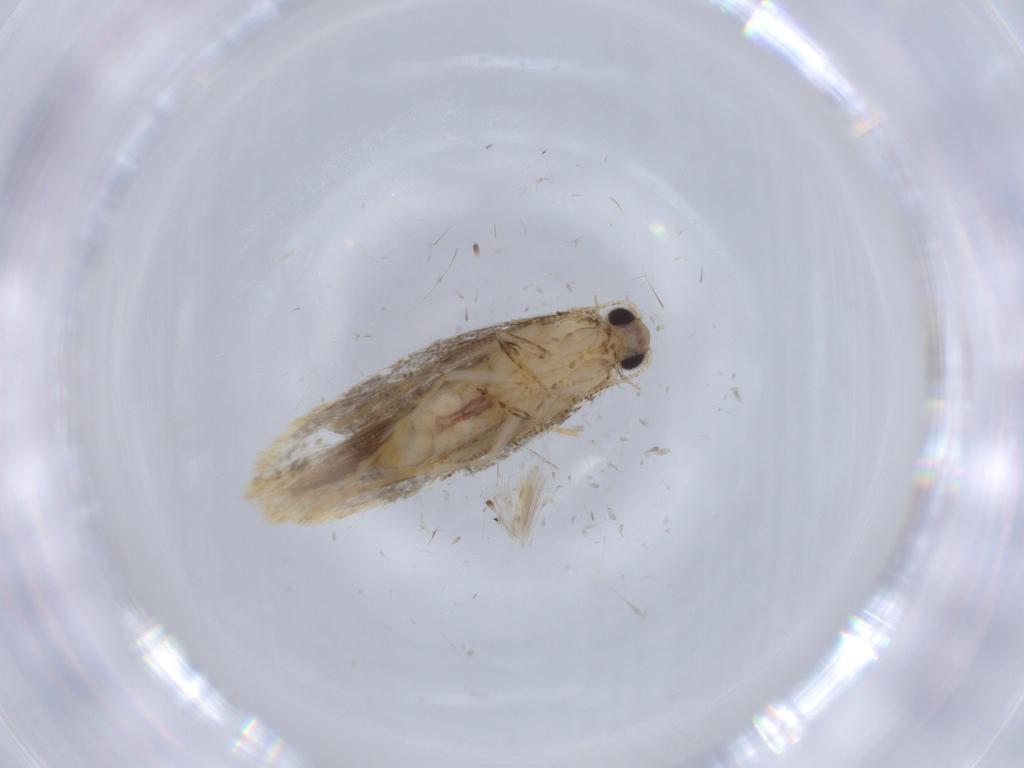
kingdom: Animalia
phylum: Arthropoda
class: Insecta
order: Lepidoptera
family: Tineidae
